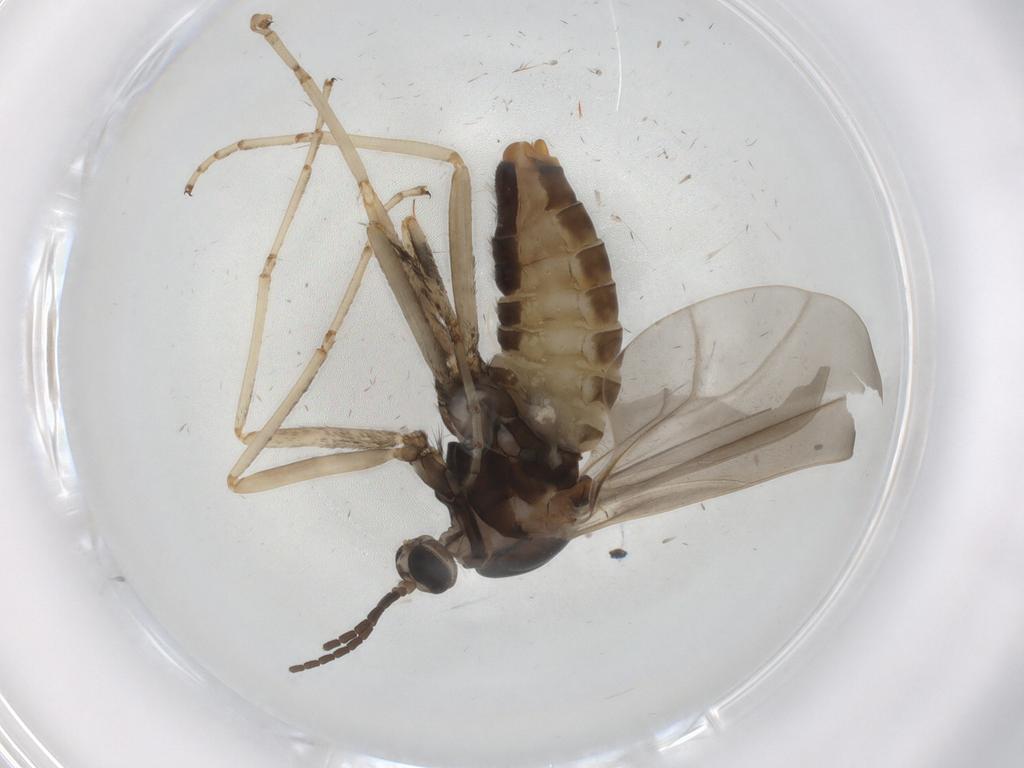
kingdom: Animalia
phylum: Arthropoda
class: Insecta
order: Diptera
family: Cecidomyiidae
